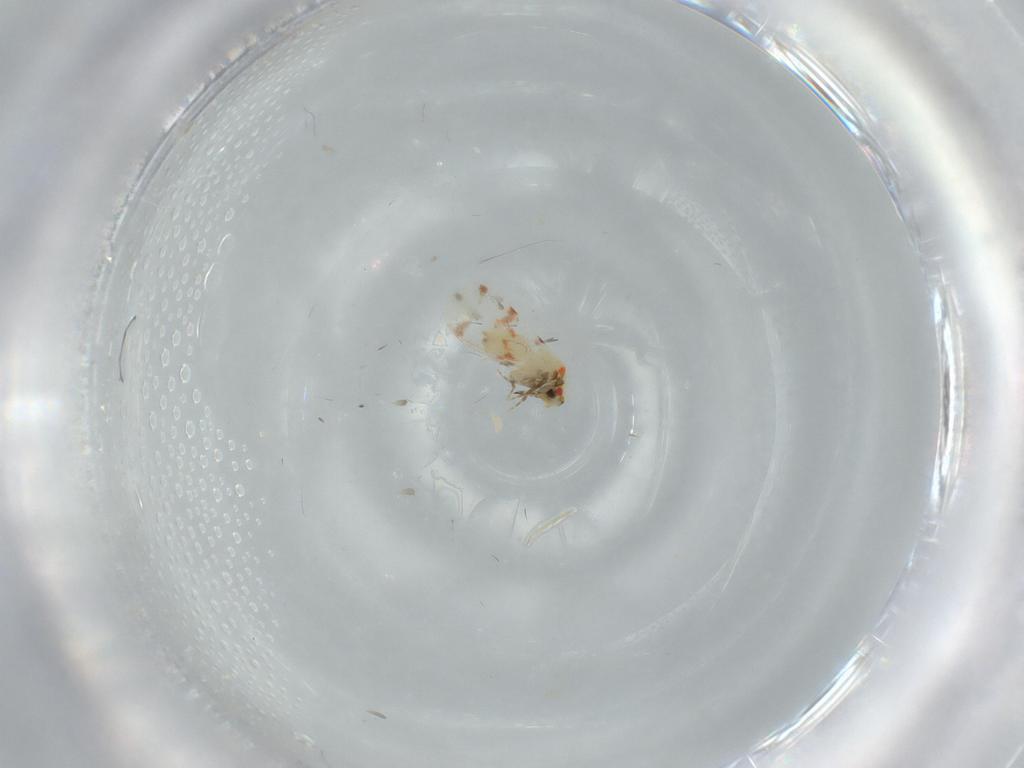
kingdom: Animalia
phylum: Arthropoda
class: Insecta
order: Hemiptera
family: Aleyrodidae
